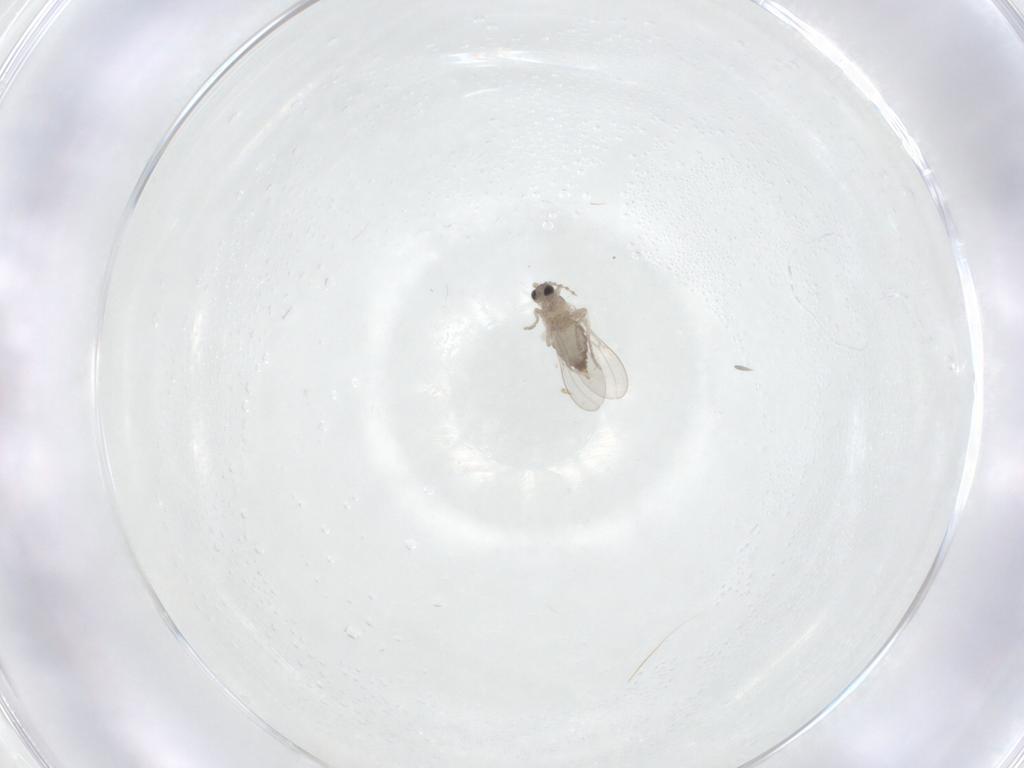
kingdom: Animalia
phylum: Arthropoda
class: Insecta
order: Diptera
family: Cecidomyiidae
